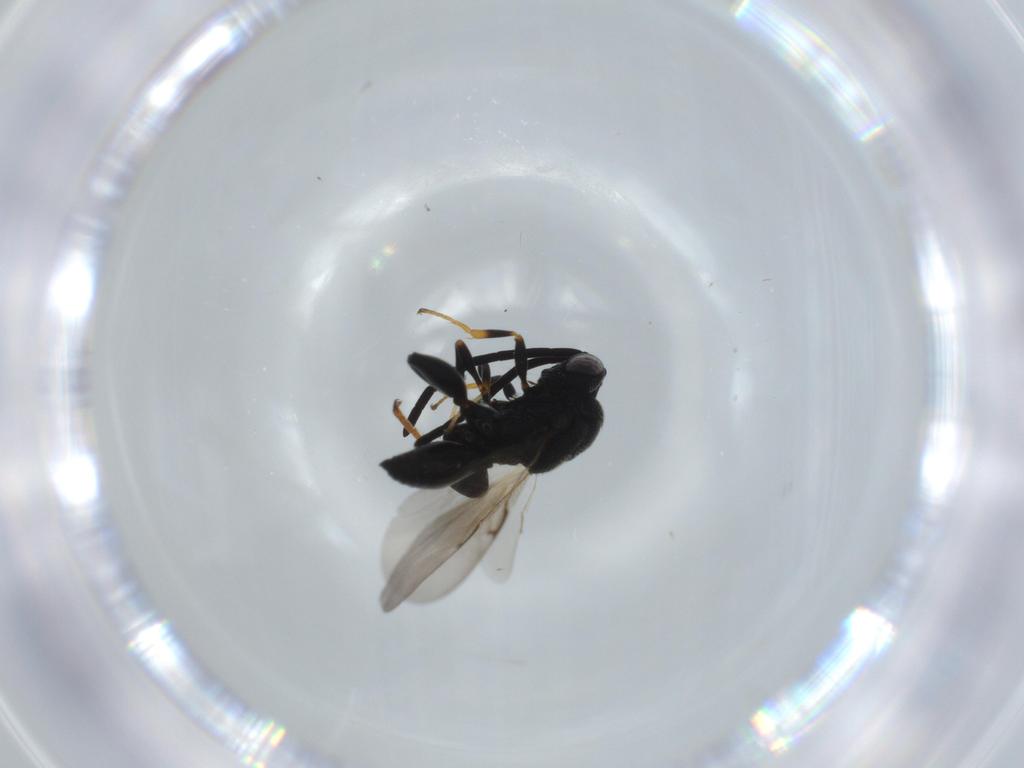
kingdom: Animalia
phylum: Arthropoda
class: Insecta
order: Hymenoptera
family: Formicidae
